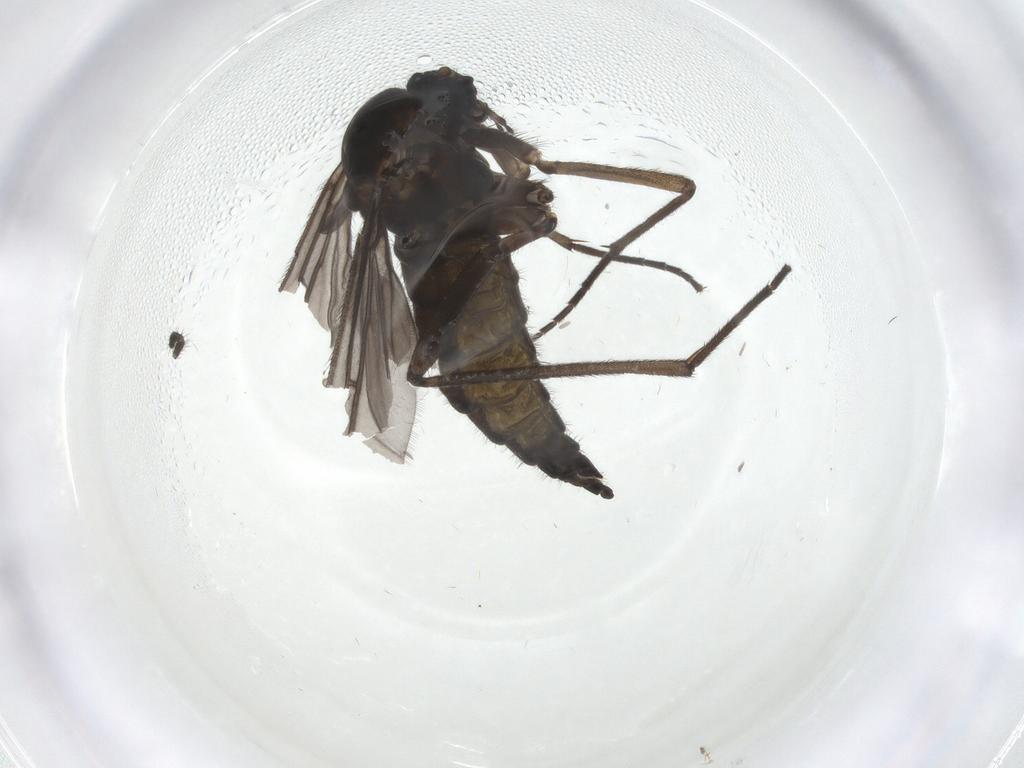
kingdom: Animalia
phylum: Arthropoda
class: Insecta
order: Diptera
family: Sciaridae
